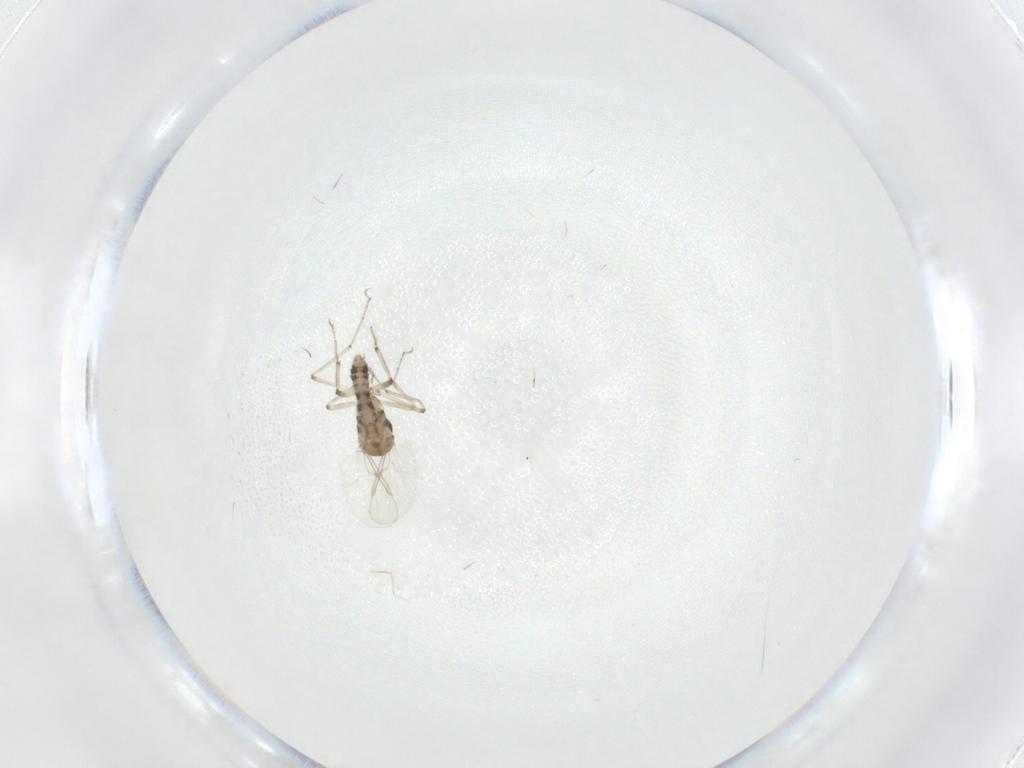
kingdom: Animalia
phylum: Arthropoda
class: Insecta
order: Diptera
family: Ceratopogonidae
